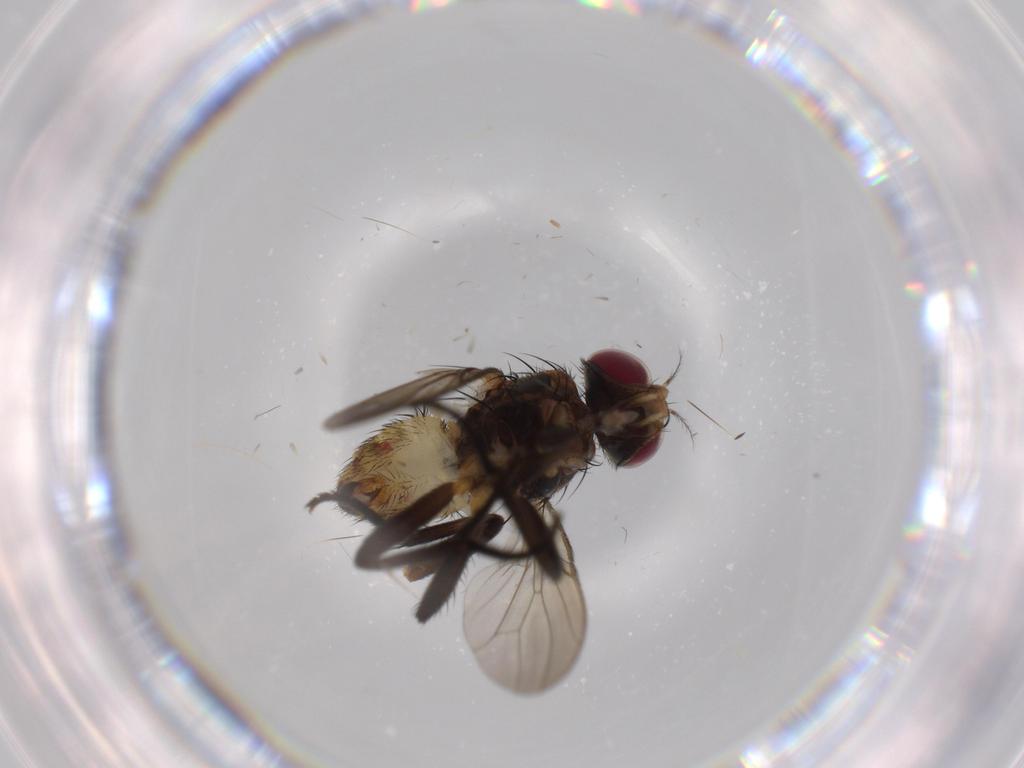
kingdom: Animalia
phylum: Arthropoda
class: Insecta
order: Diptera
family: Anthomyiidae
